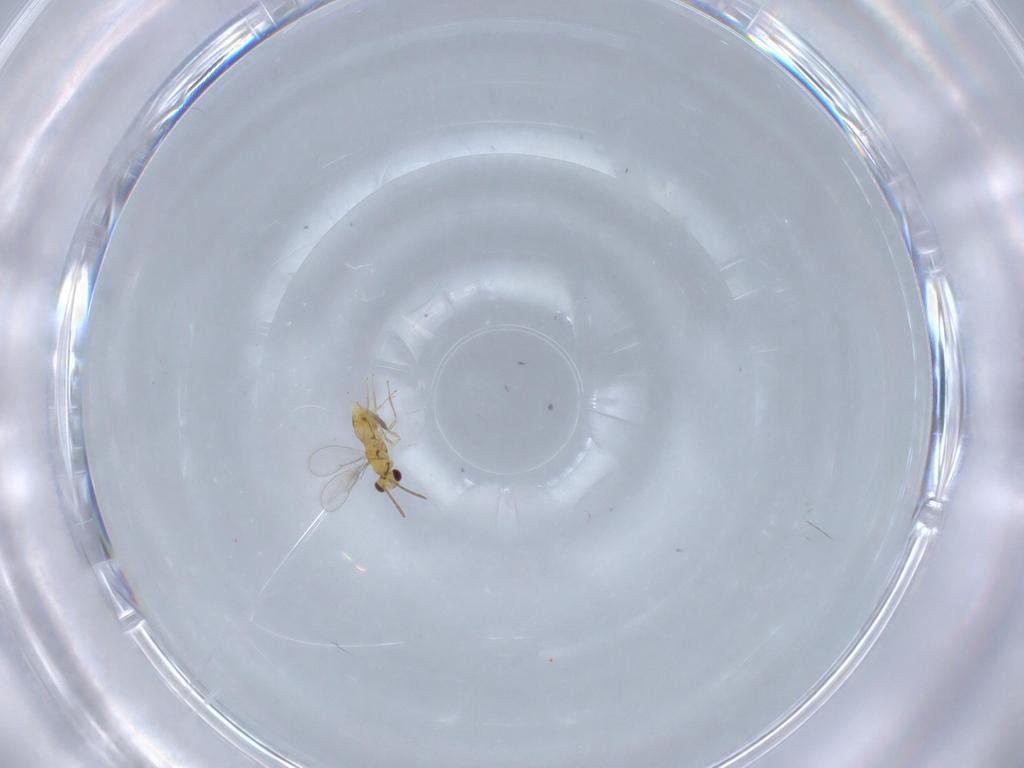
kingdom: Animalia
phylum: Arthropoda
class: Insecta
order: Hymenoptera
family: Aphelinidae
